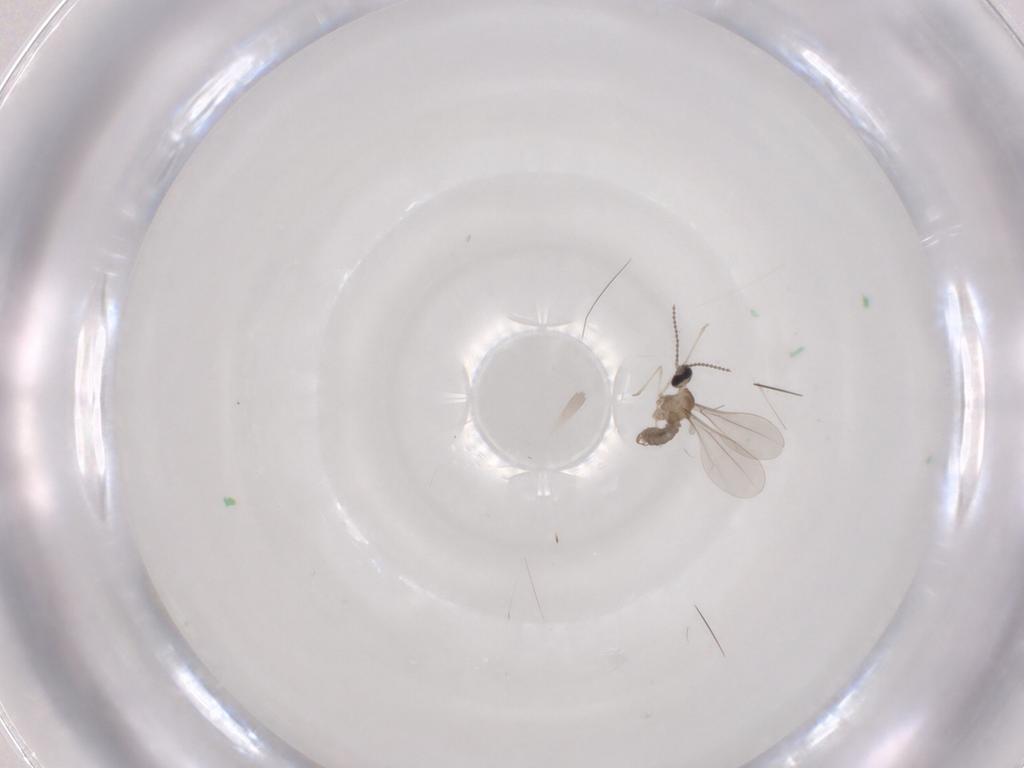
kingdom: Animalia
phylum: Arthropoda
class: Insecta
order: Diptera
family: Cecidomyiidae
